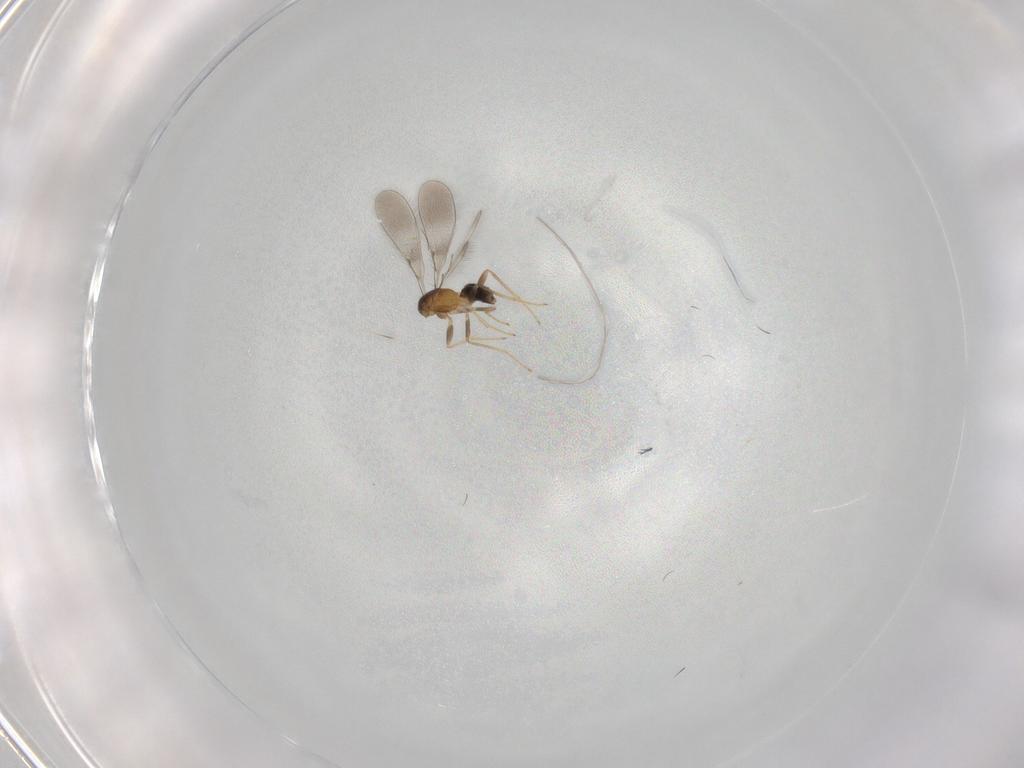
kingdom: Animalia
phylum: Arthropoda
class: Insecta
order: Hymenoptera
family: Mymaridae
